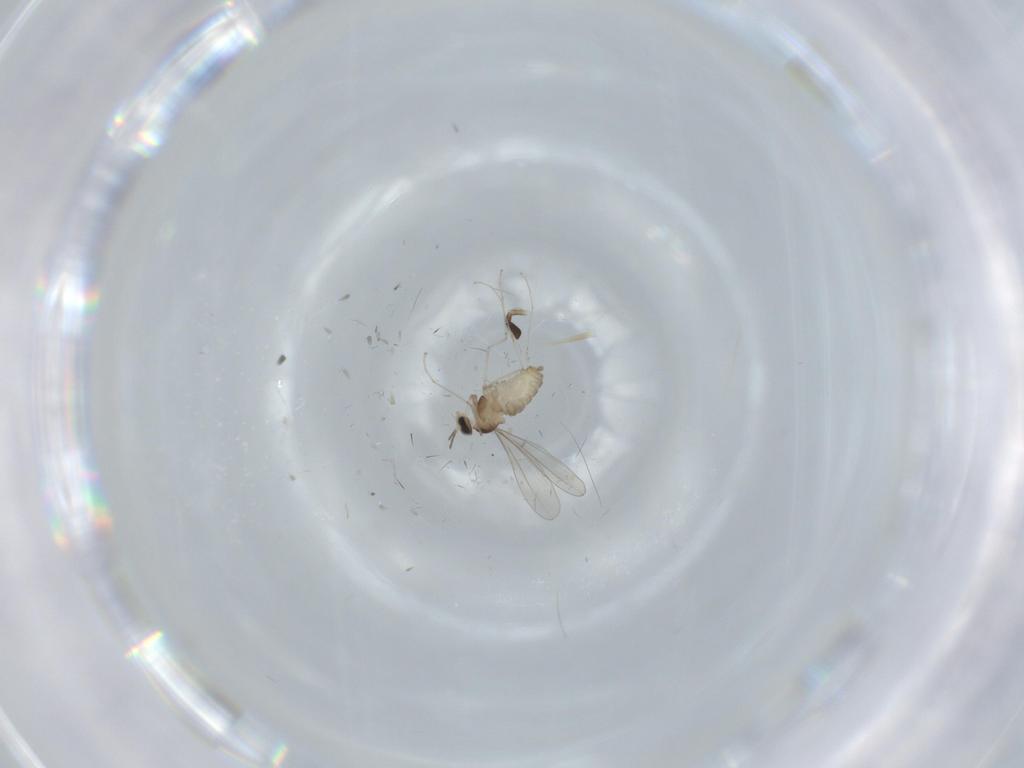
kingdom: Animalia
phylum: Arthropoda
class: Insecta
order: Diptera
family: Cecidomyiidae
